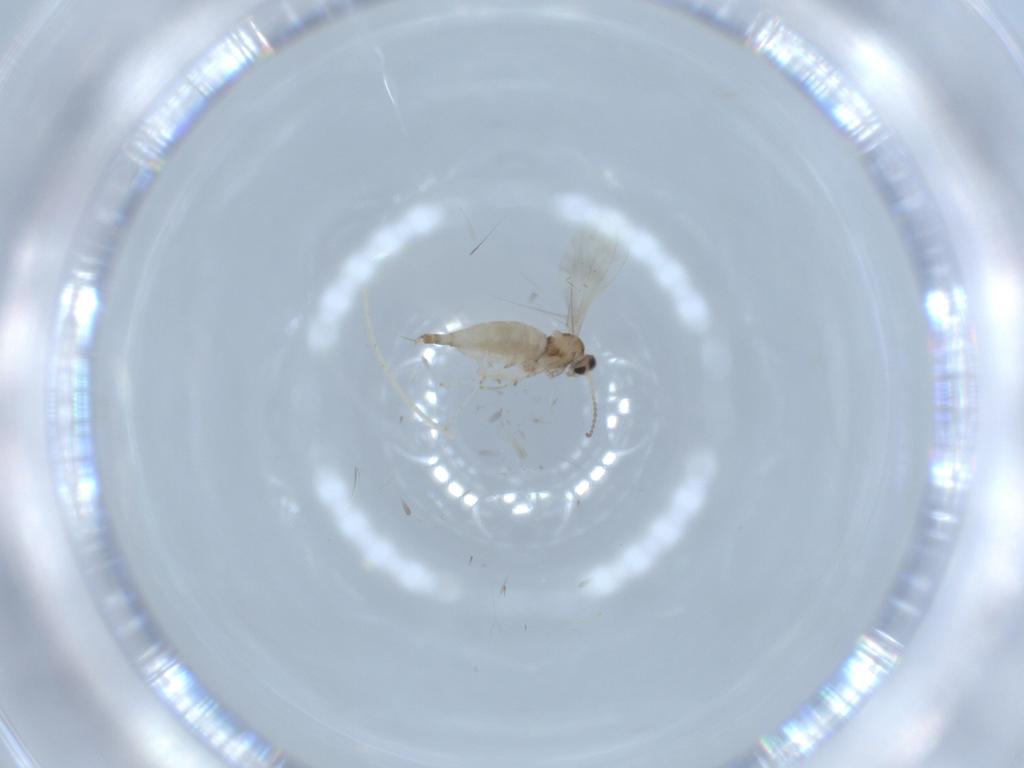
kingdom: Animalia
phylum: Arthropoda
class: Insecta
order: Diptera
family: Cecidomyiidae
